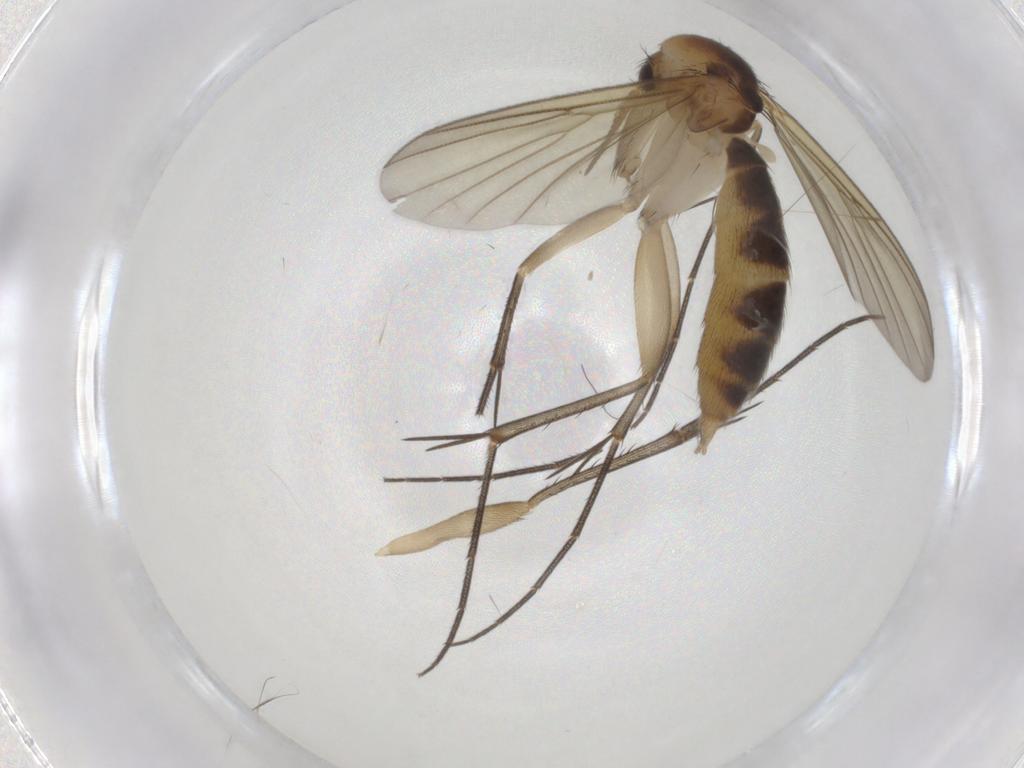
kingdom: Animalia
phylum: Arthropoda
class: Insecta
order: Diptera
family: Mycetophilidae
